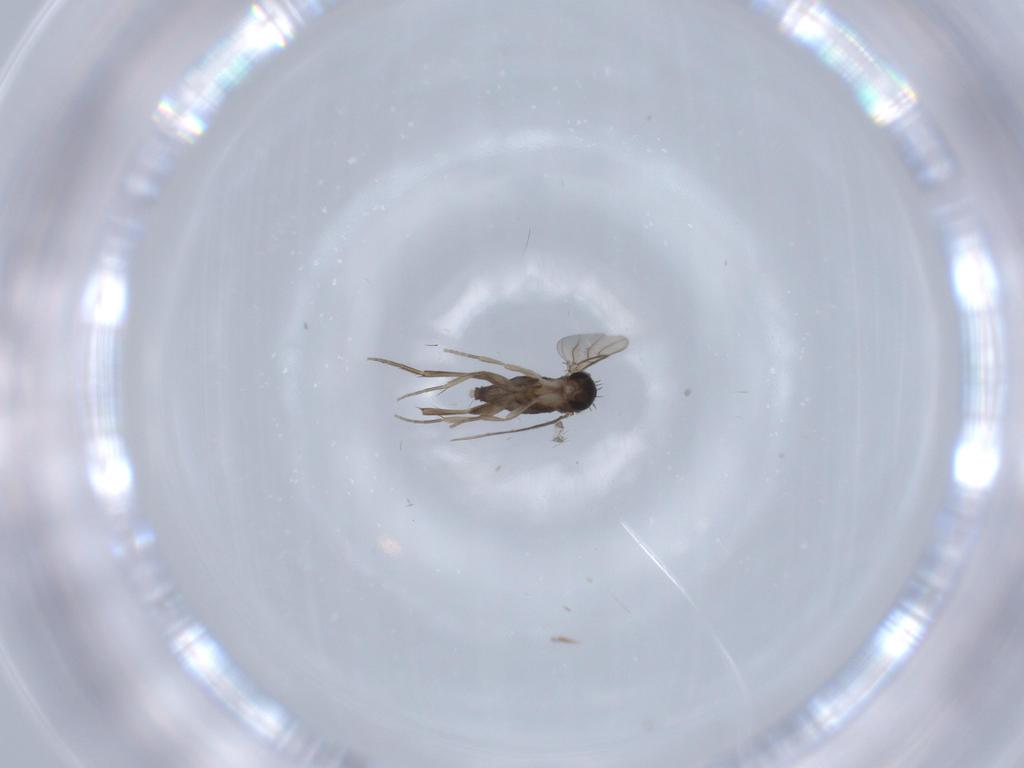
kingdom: Animalia
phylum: Arthropoda
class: Insecta
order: Diptera
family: Phoridae
